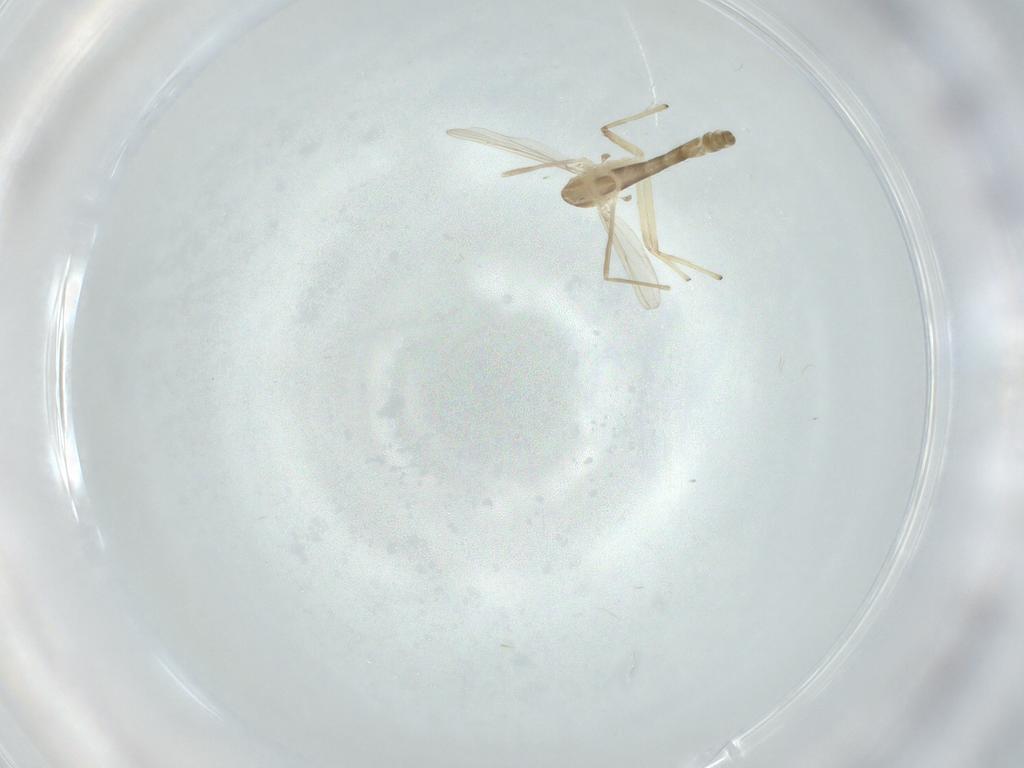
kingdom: Animalia
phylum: Arthropoda
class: Insecta
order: Diptera
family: Chironomidae
